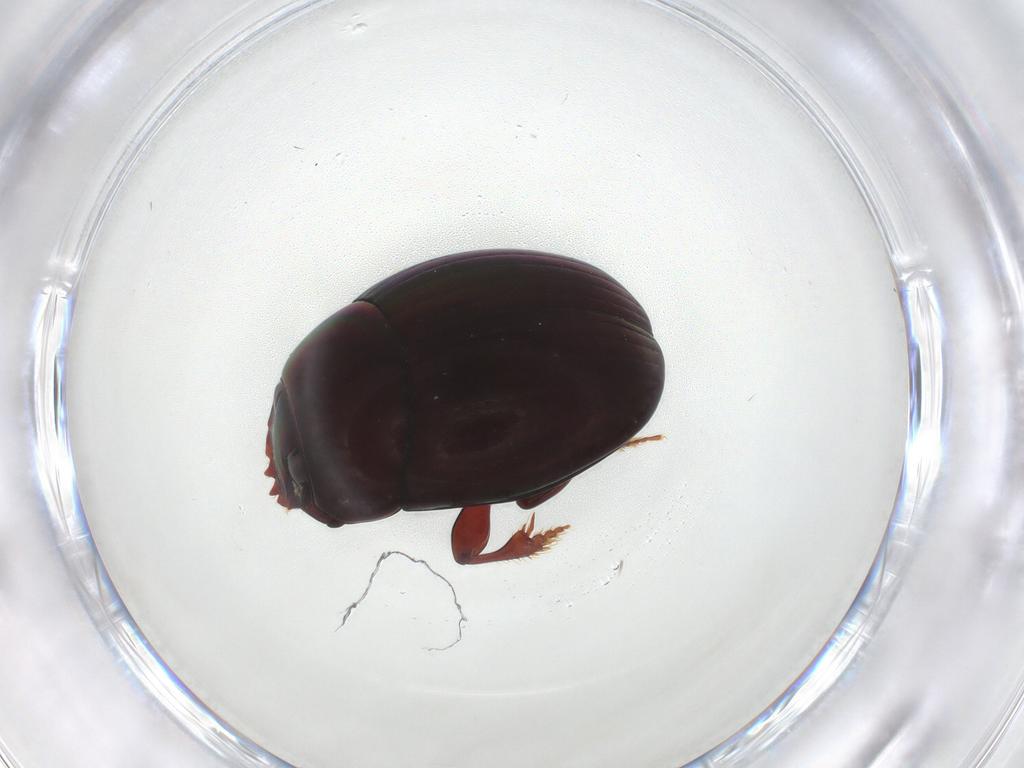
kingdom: Animalia
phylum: Arthropoda
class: Insecta
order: Coleoptera
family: Scarabaeidae
